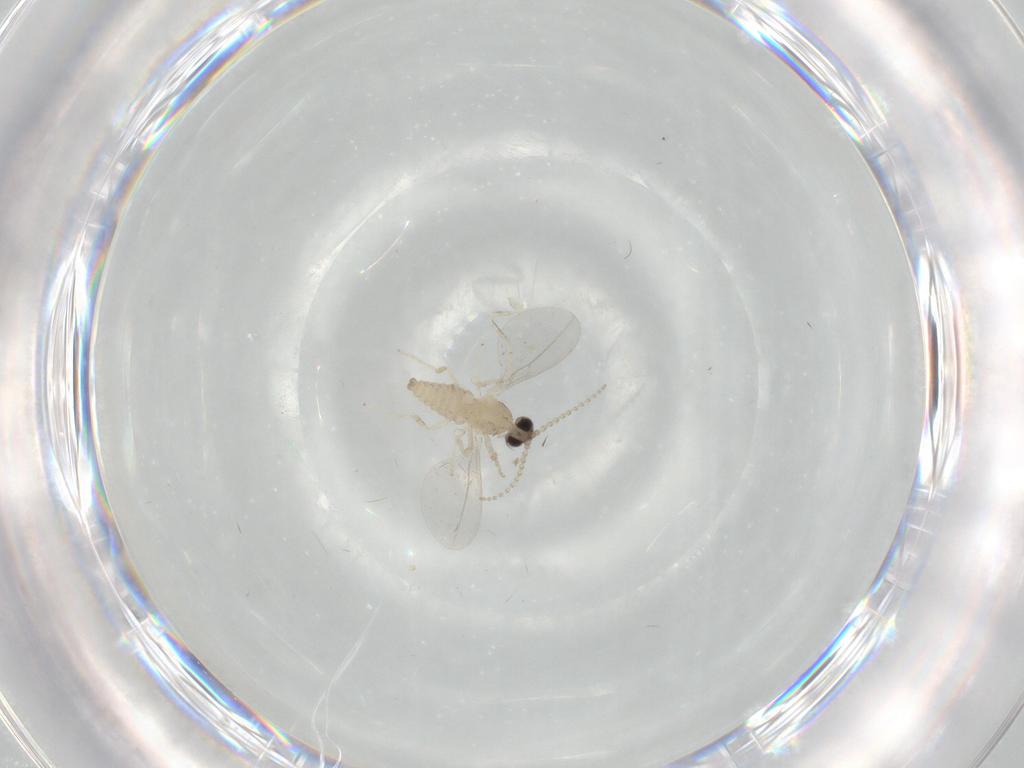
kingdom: Animalia
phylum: Arthropoda
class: Insecta
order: Diptera
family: Cecidomyiidae
